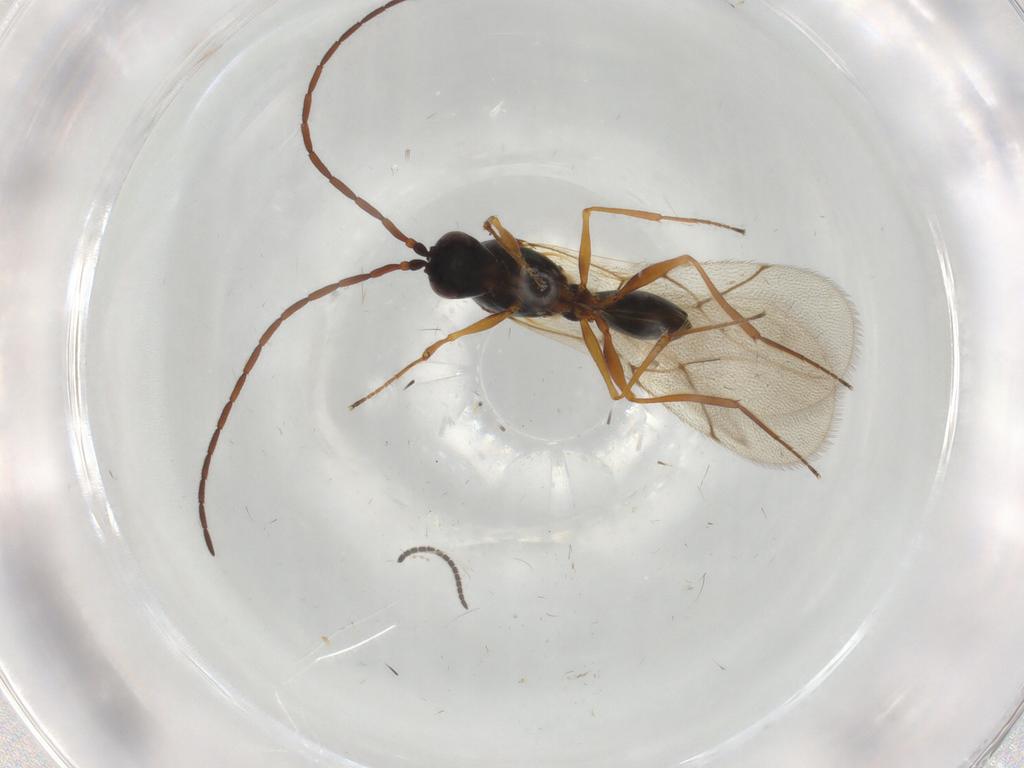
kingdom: Animalia
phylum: Arthropoda
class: Insecta
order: Hymenoptera
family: Figitidae
